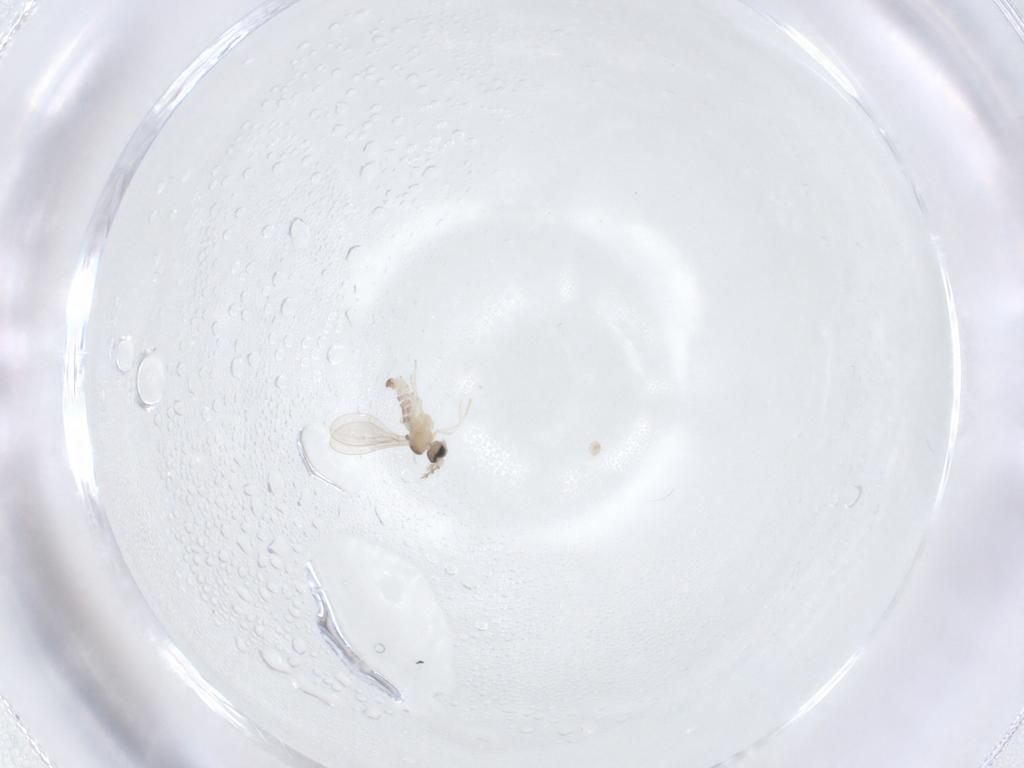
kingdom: Animalia
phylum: Arthropoda
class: Insecta
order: Diptera
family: Cecidomyiidae
